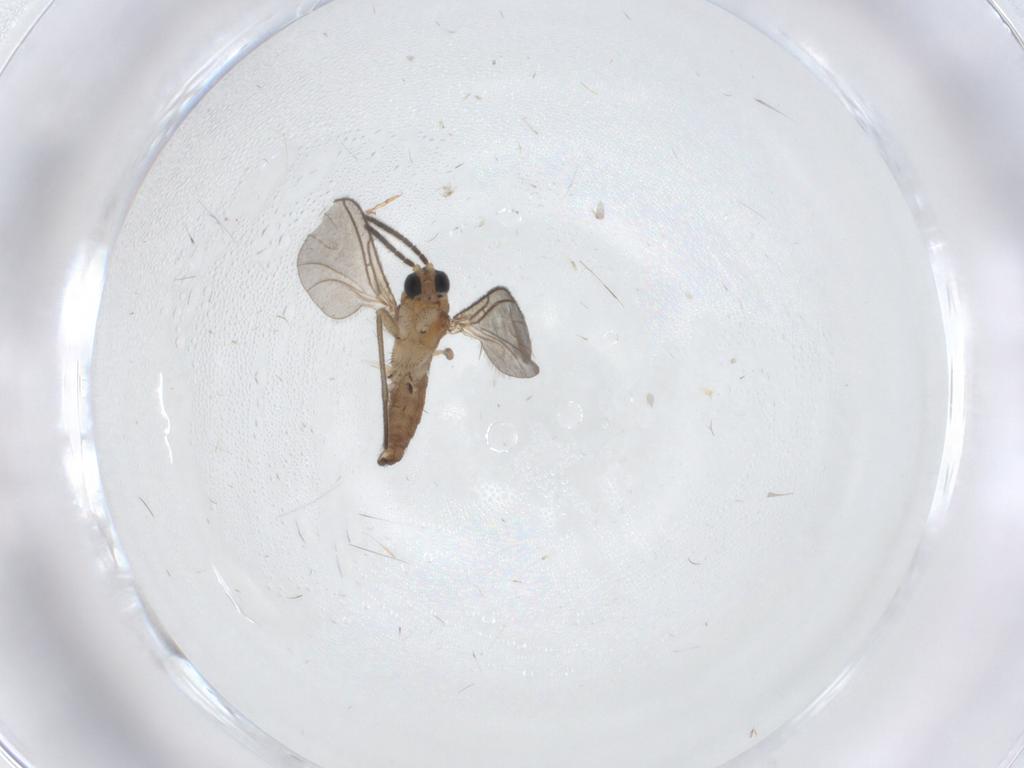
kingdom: Animalia
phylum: Arthropoda
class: Insecta
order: Diptera
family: Sciaridae
